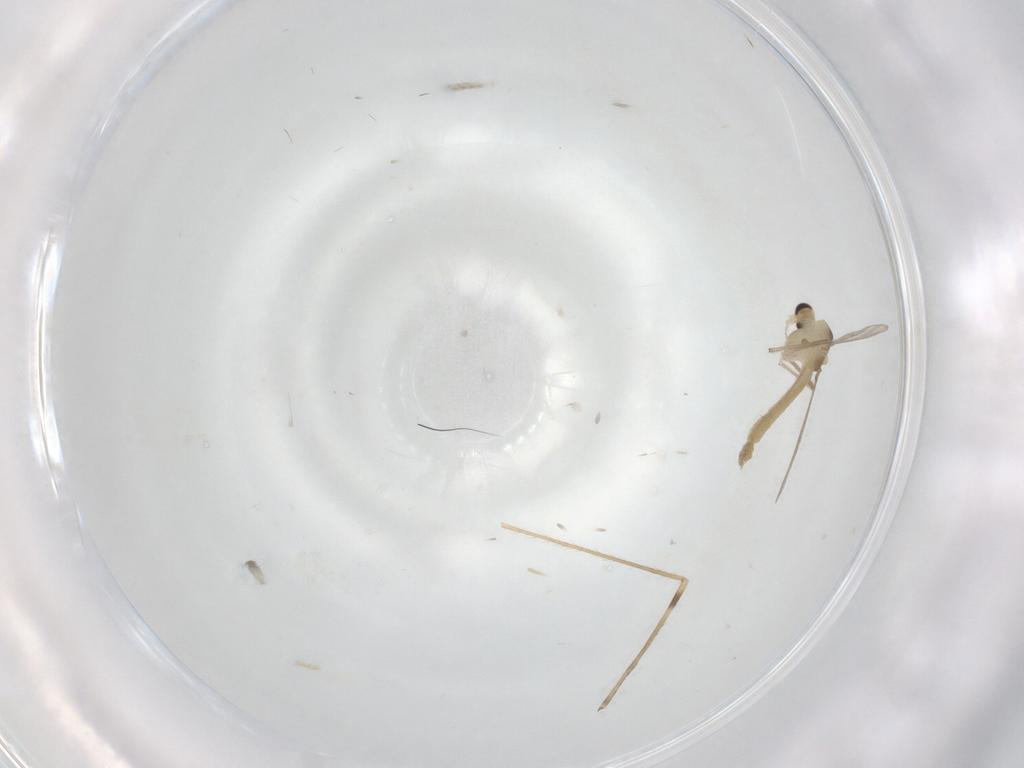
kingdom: Animalia
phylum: Arthropoda
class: Insecta
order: Diptera
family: Limoniidae
